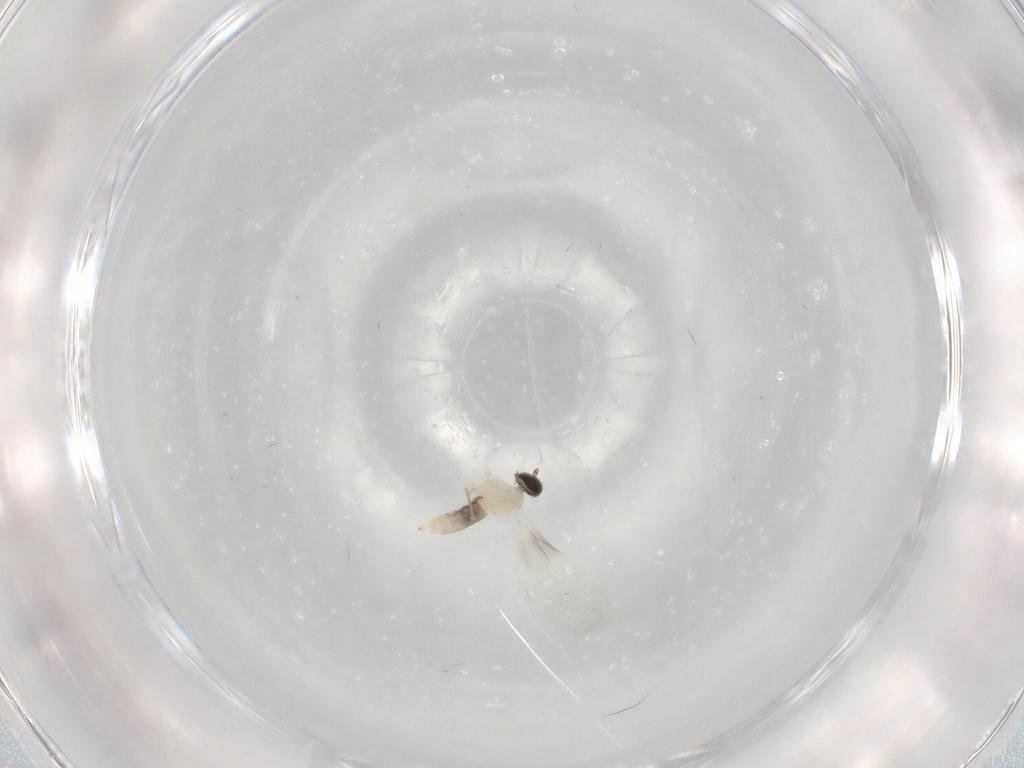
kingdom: Animalia
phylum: Arthropoda
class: Insecta
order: Diptera
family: Cecidomyiidae
